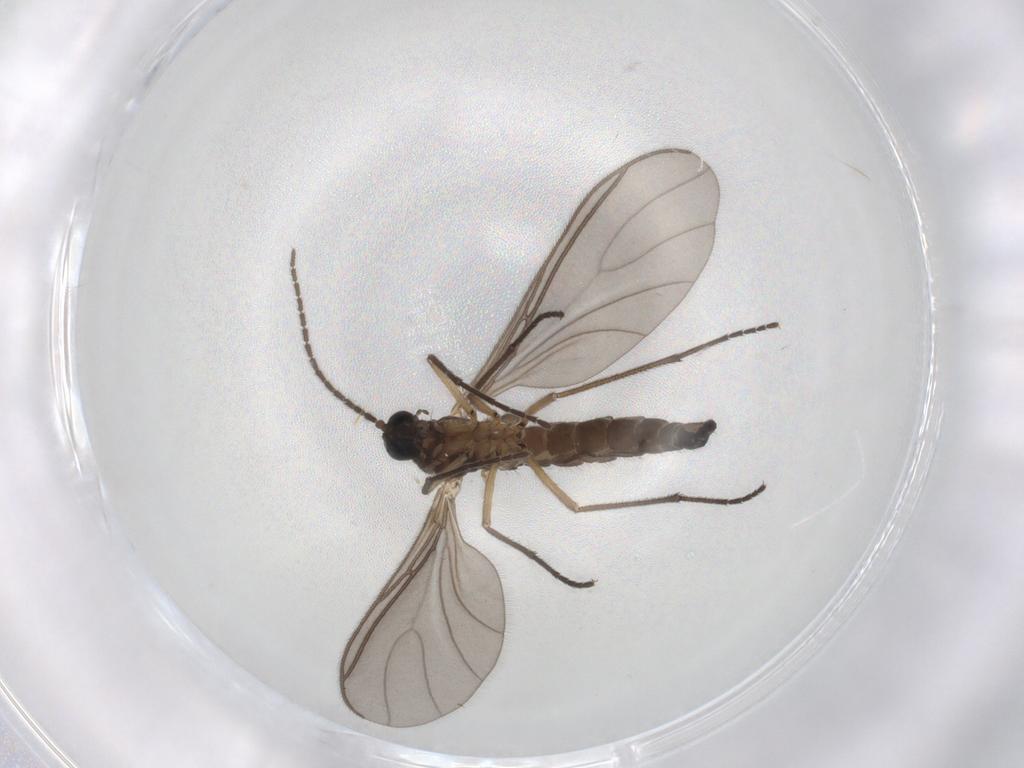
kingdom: Animalia
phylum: Arthropoda
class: Insecta
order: Diptera
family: Sciaridae
